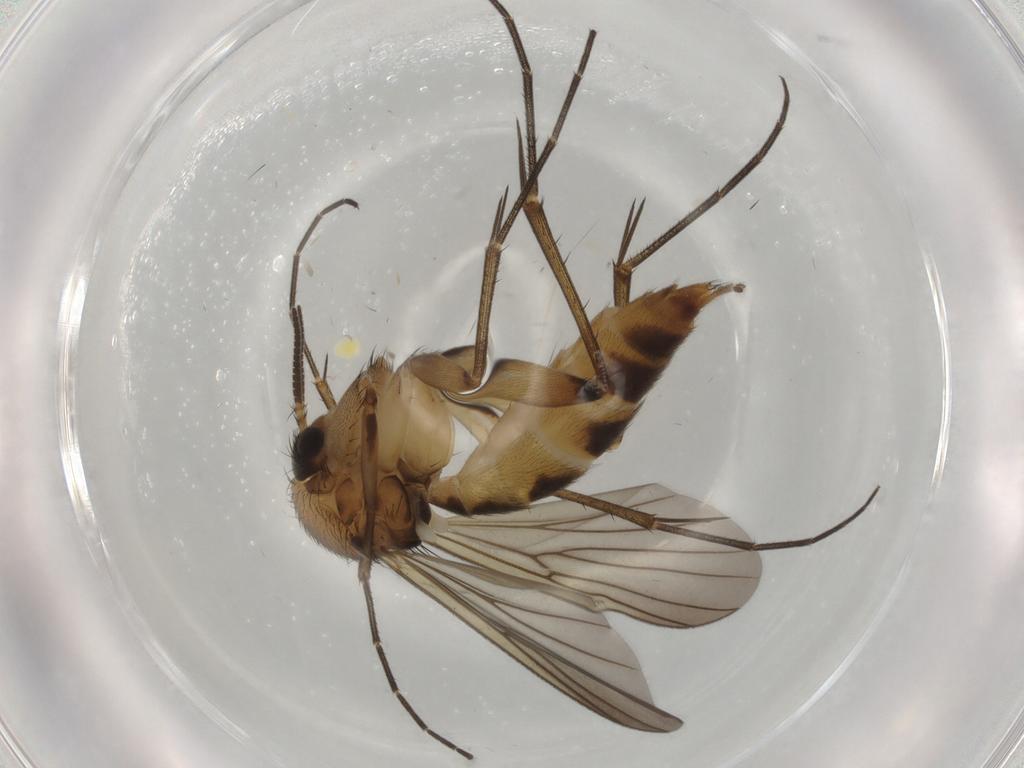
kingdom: Animalia
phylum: Arthropoda
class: Insecta
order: Diptera
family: Mycetophilidae
